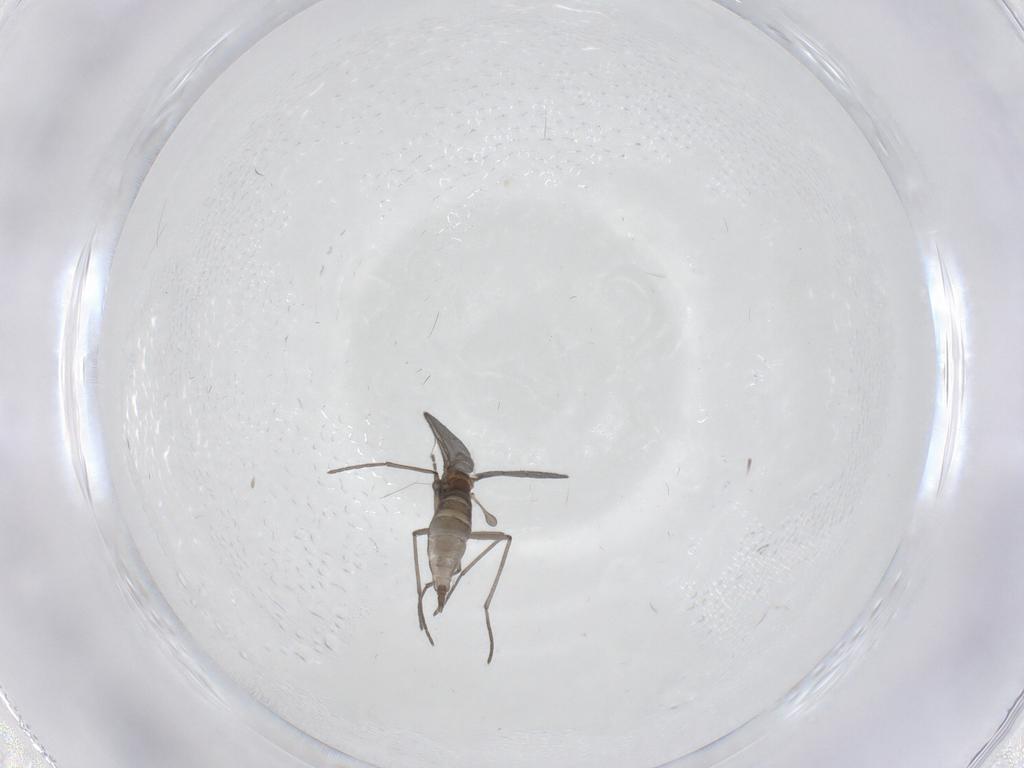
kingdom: Animalia
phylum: Arthropoda
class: Insecta
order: Diptera
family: Sciaridae
